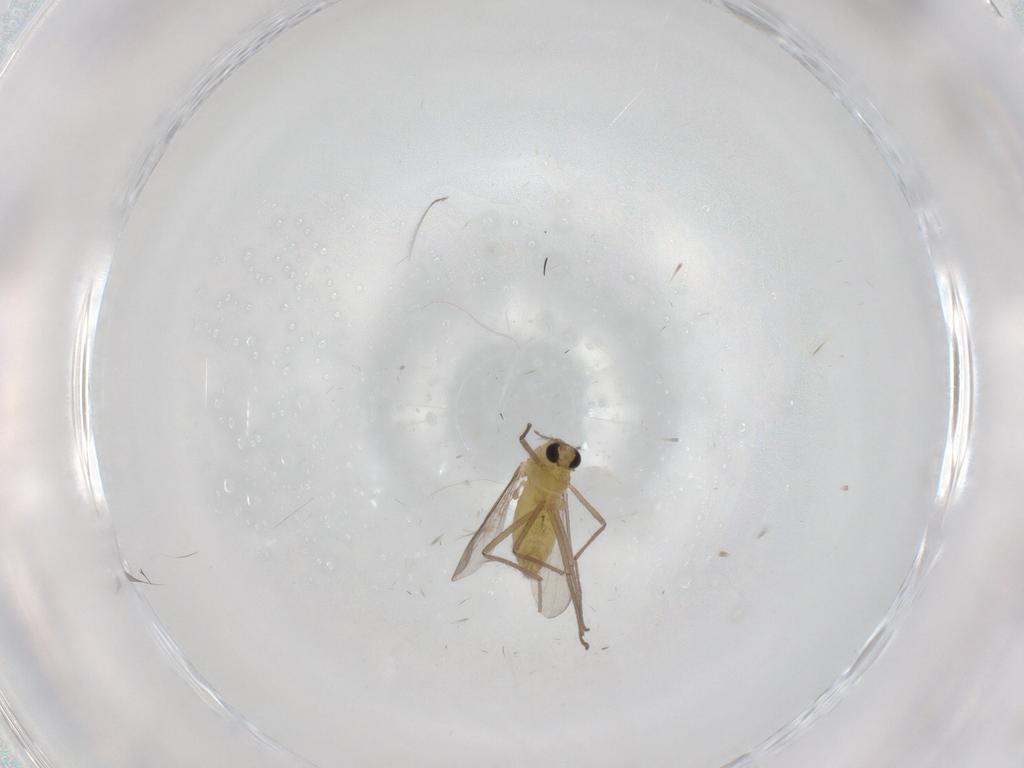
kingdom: Animalia
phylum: Arthropoda
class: Insecta
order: Diptera
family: Chironomidae
